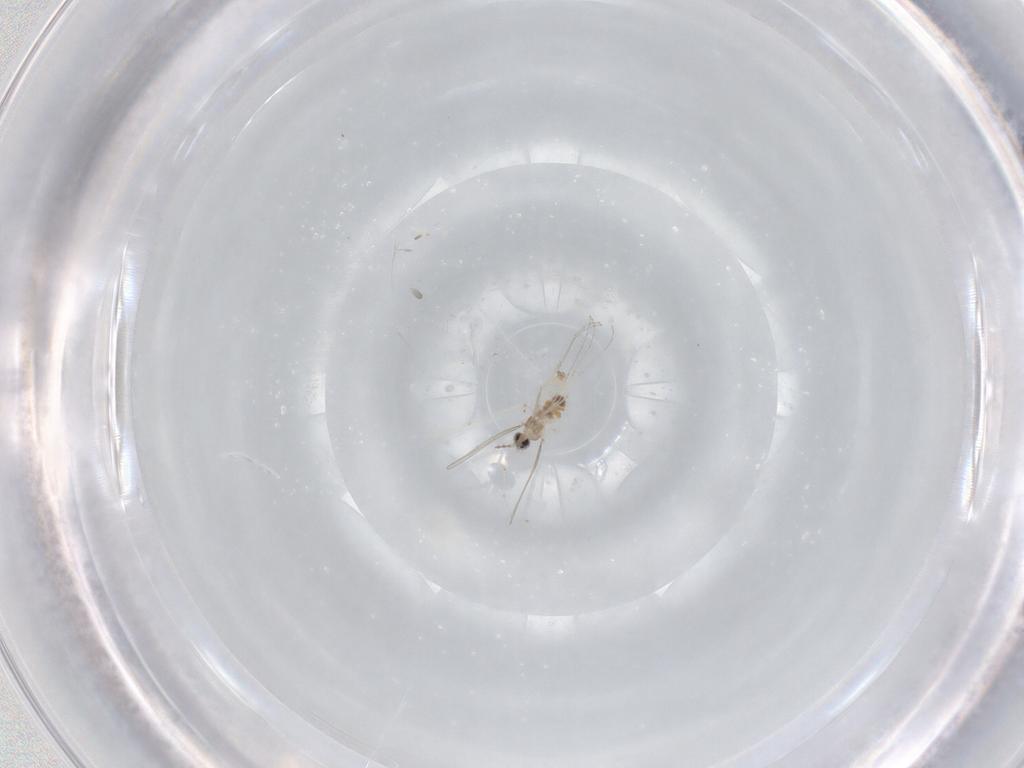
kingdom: Animalia
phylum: Arthropoda
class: Insecta
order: Diptera
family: Cecidomyiidae
